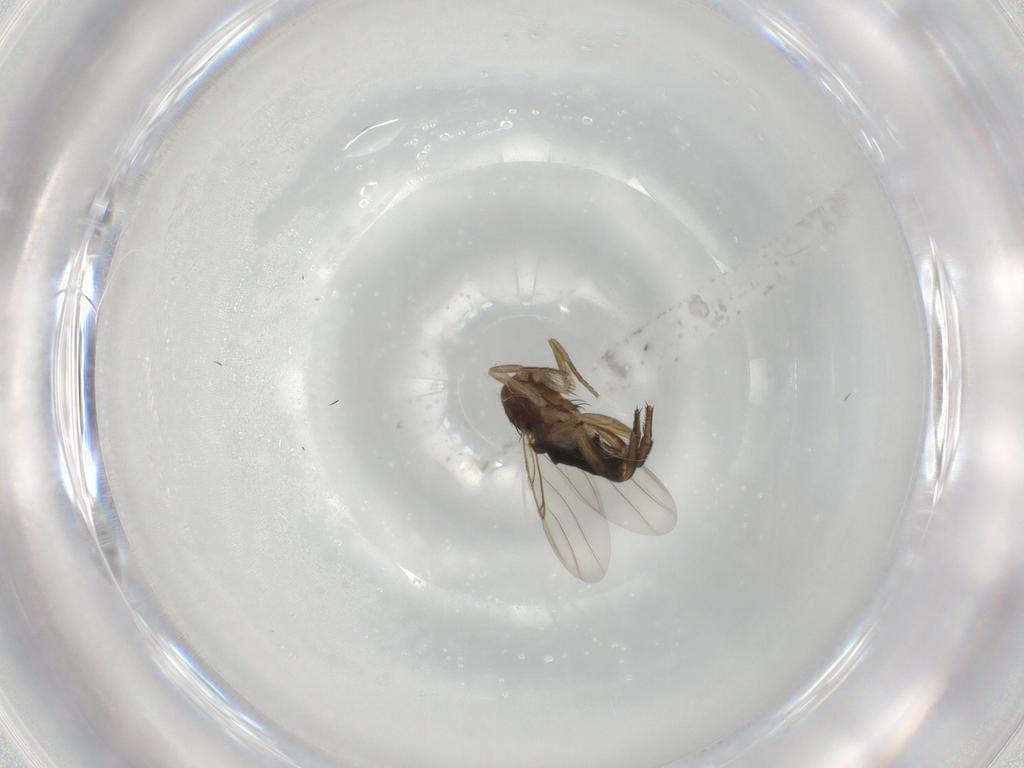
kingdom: Animalia
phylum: Arthropoda
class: Insecta
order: Diptera
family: Phoridae
